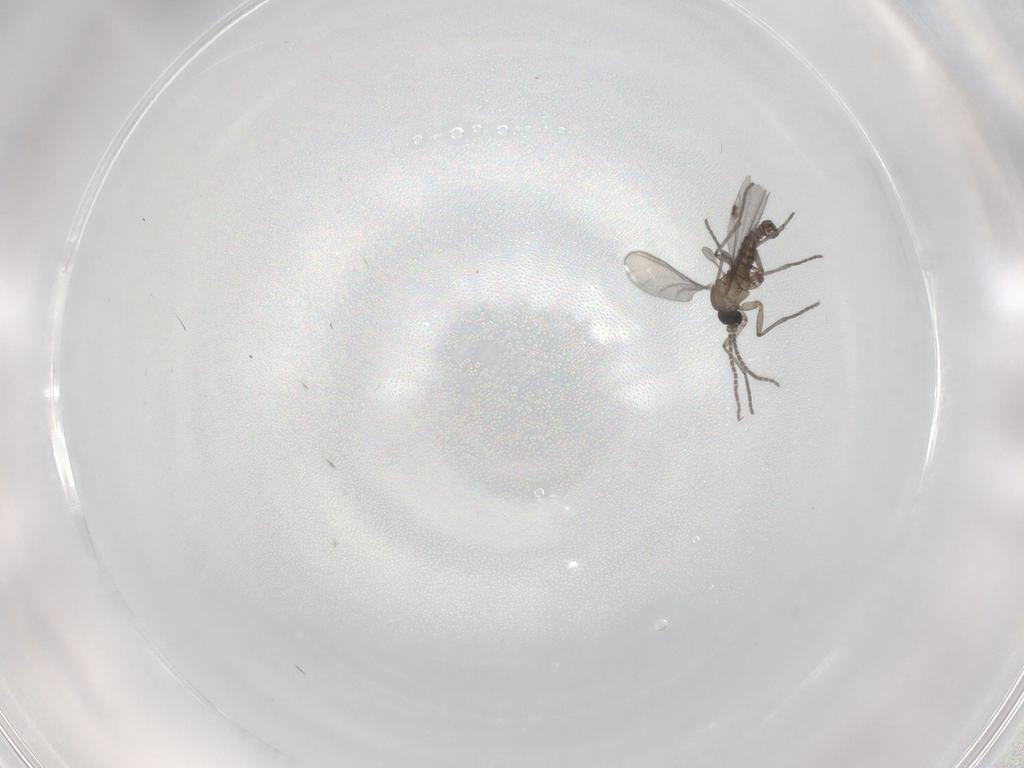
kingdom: Animalia
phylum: Arthropoda
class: Insecta
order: Diptera
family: Sciaridae
